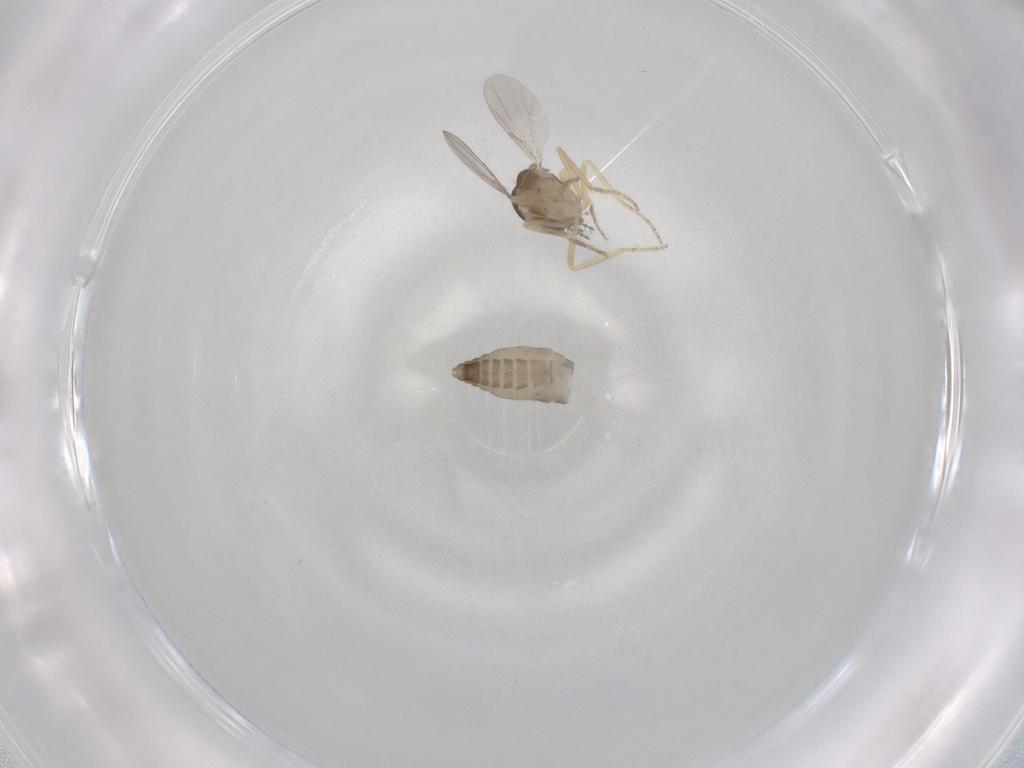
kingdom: Animalia
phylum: Arthropoda
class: Insecta
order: Diptera
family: Ceratopogonidae
